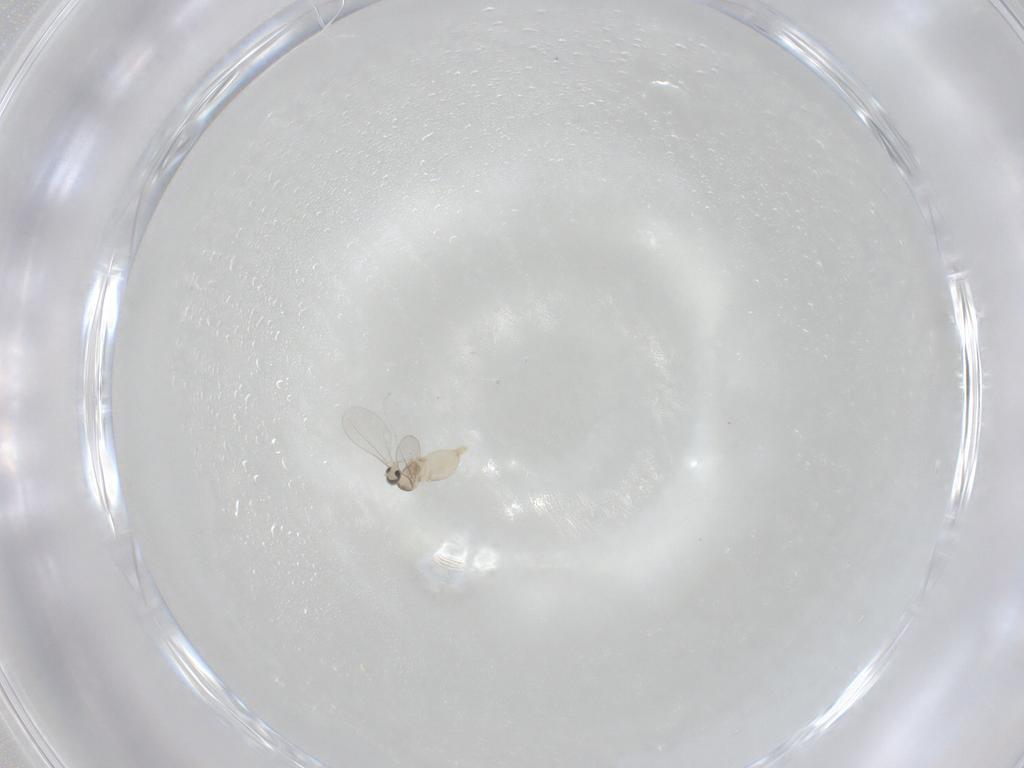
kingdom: Animalia
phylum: Arthropoda
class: Insecta
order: Diptera
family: Cecidomyiidae
